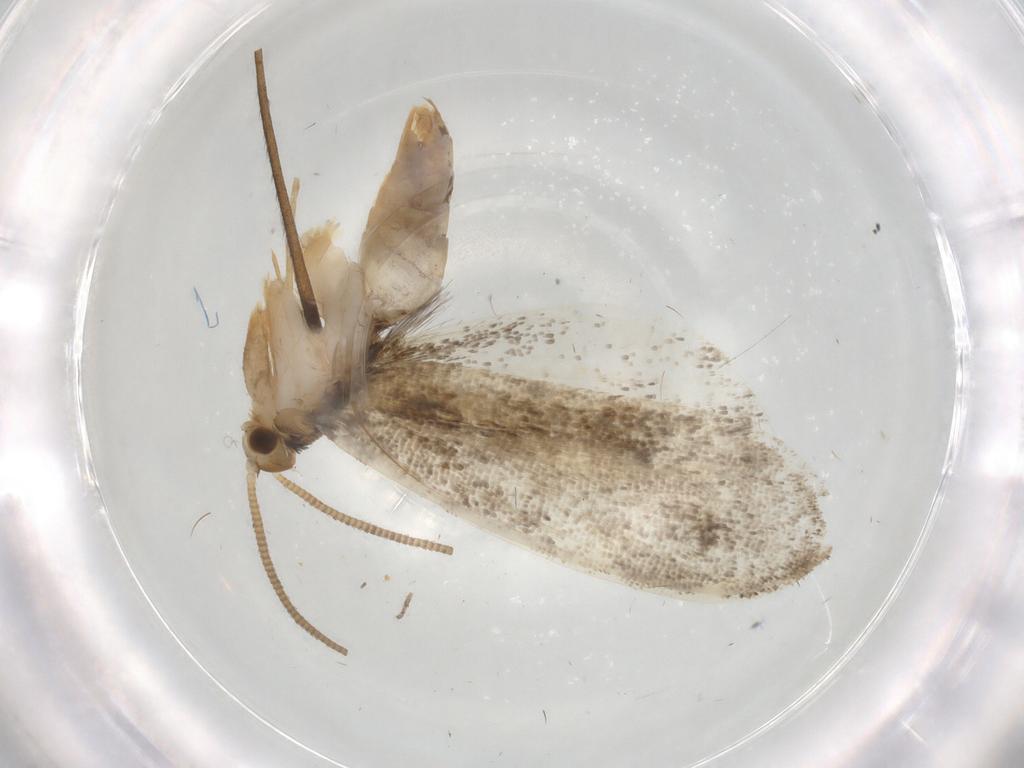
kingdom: Animalia
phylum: Arthropoda
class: Insecta
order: Lepidoptera
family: Dryadaulidae
